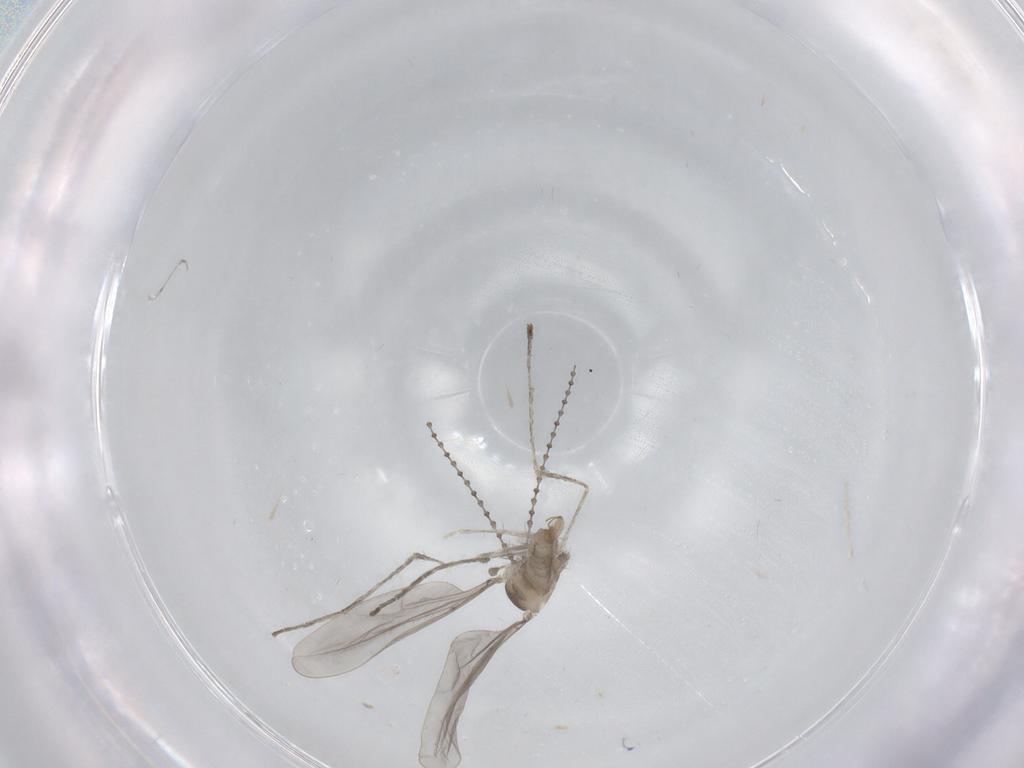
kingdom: Animalia
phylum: Arthropoda
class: Insecta
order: Diptera
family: Cecidomyiidae
